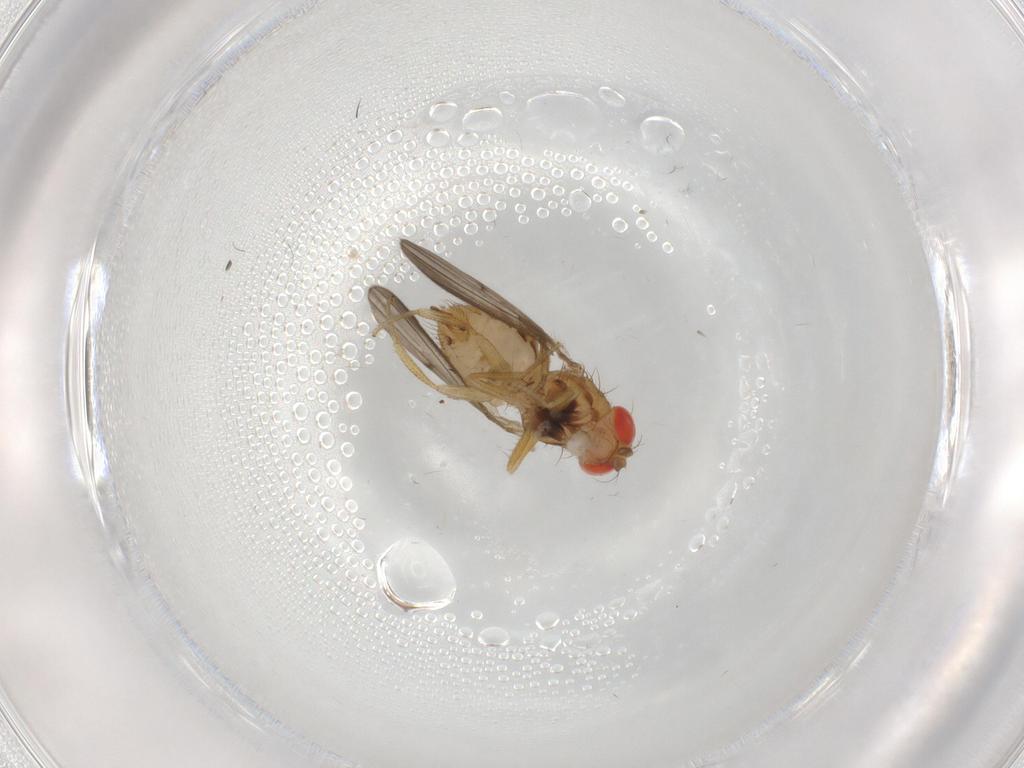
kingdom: Animalia
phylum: Arthropoda
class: Insecta
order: Diptera
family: Drosophilidae
